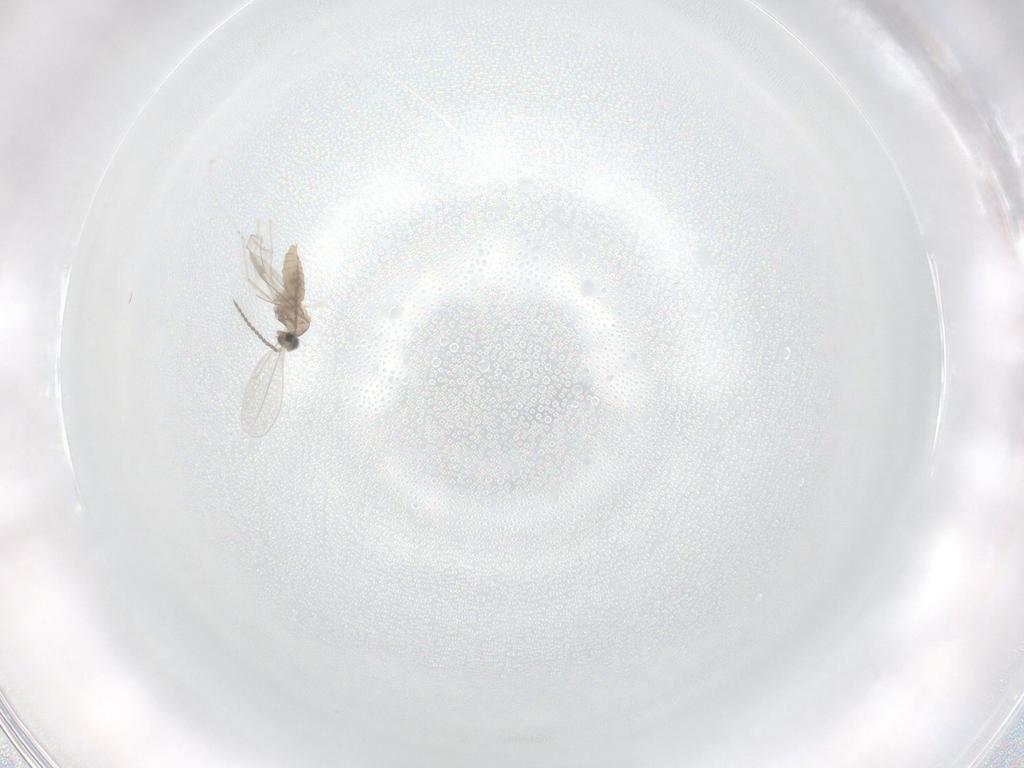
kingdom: Animalia
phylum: Arthropoda
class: Insecta
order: Diptera
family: Cecidomyiidae
